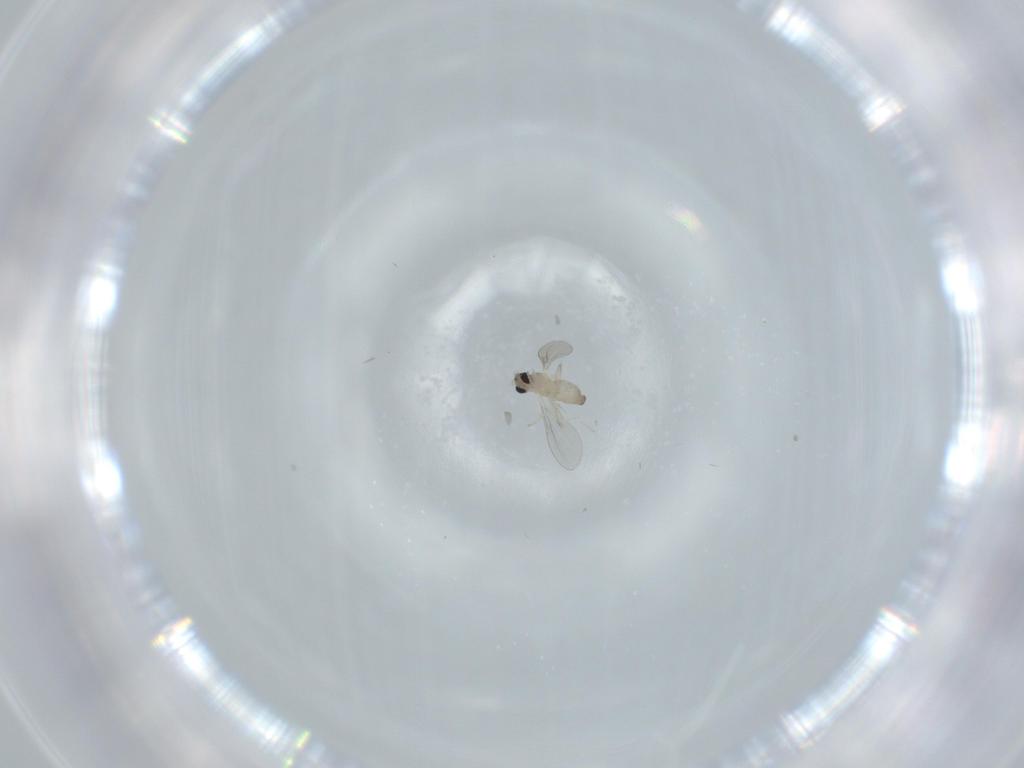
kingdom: Animalia
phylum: Arthropoda
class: Insecta
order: Diptera
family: Cecidomyiidae
